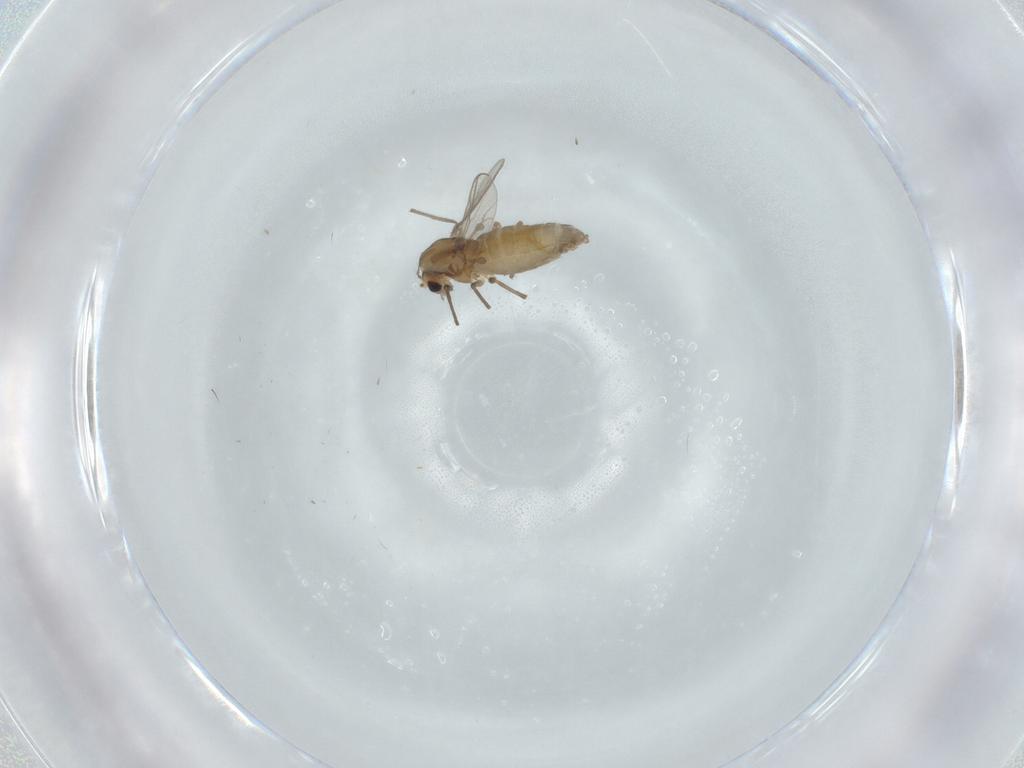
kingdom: Animalia
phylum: Arthropoda
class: Insecta
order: Diptera
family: Chironomidae
